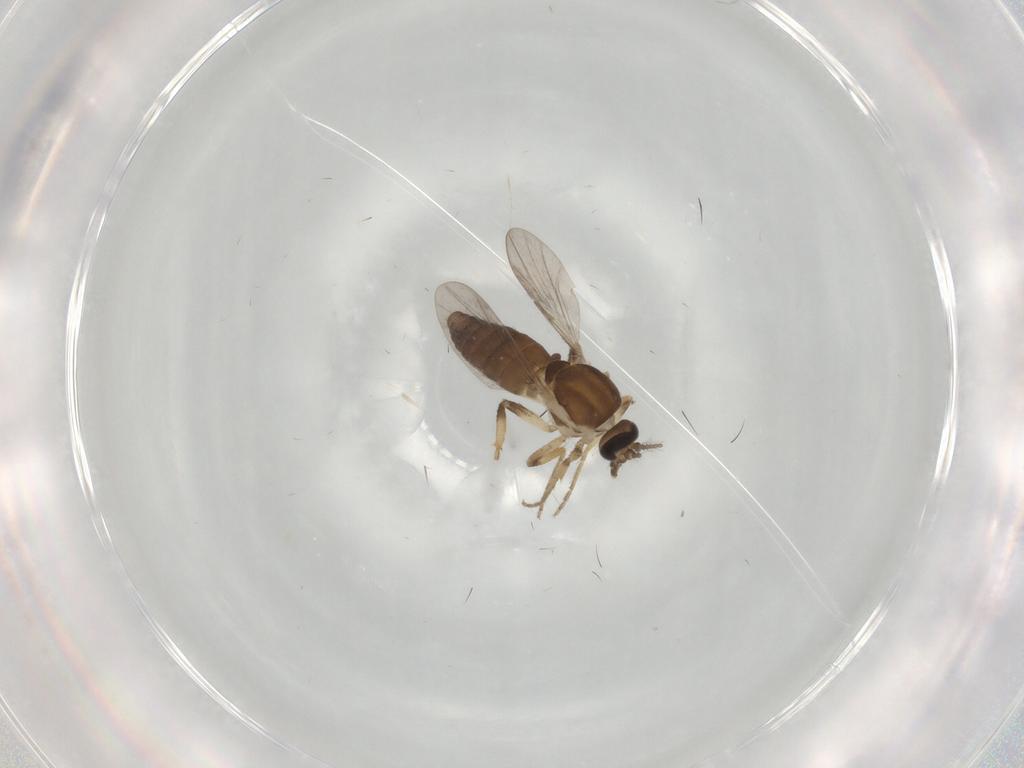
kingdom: Animalia
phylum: Arthropoda
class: Insecta
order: Diptera
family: Ceratopogonidae
